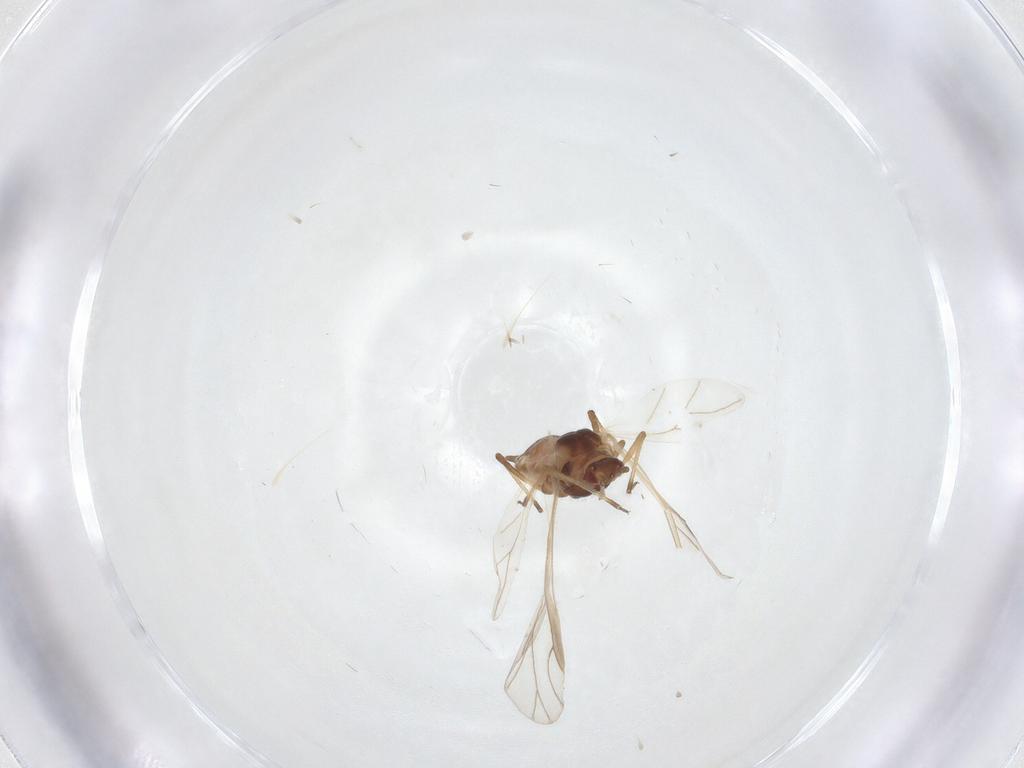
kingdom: Animalia
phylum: Arthropoda
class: Insecta
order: Hemiptera
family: Aphididae
